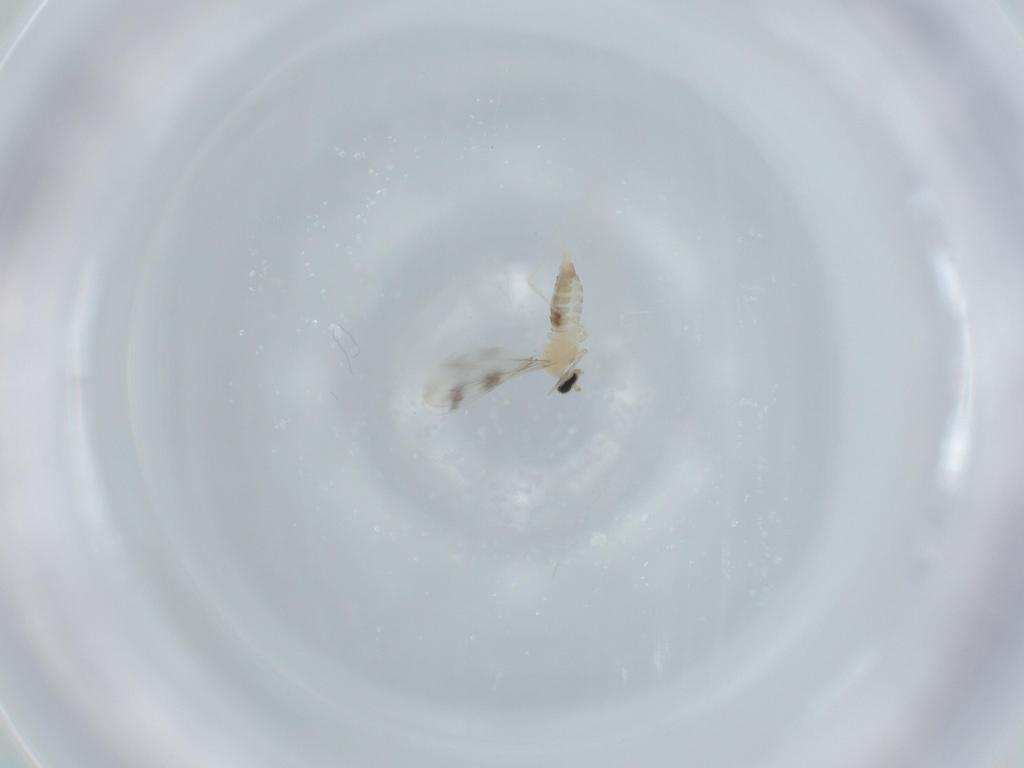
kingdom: Animalia
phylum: Arthropoda
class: Insecta
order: Diptera
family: Cecidomyiidae
